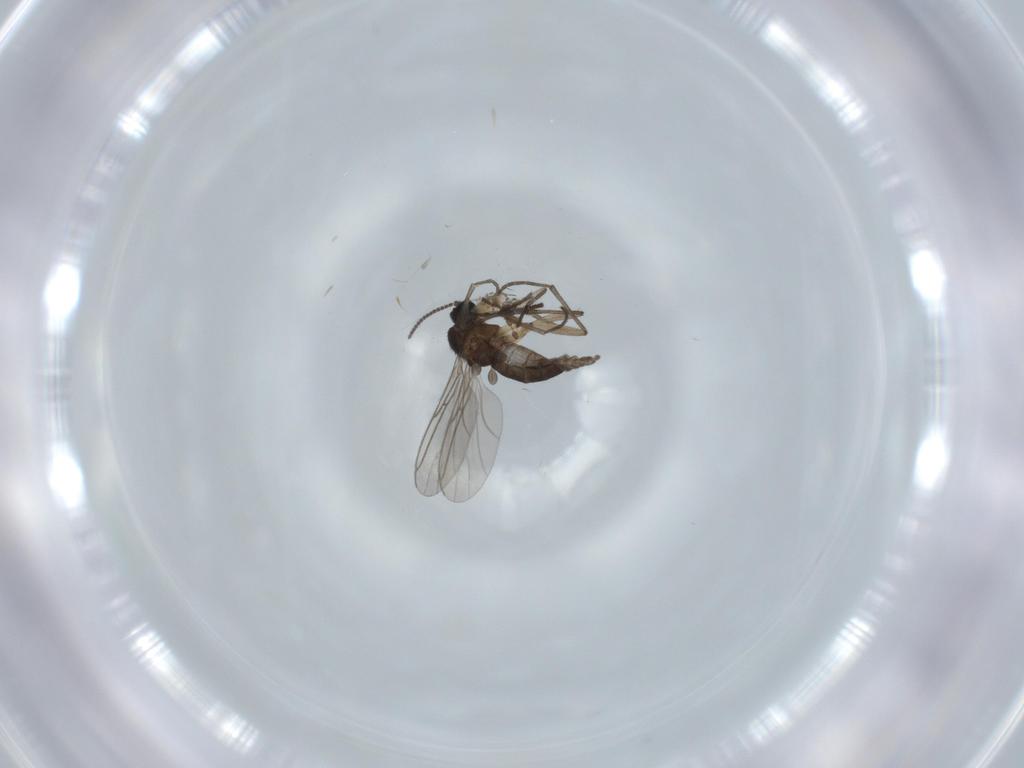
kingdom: Animalia
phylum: Arthropoda
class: Insecta
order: Diptera
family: Sciaridae
